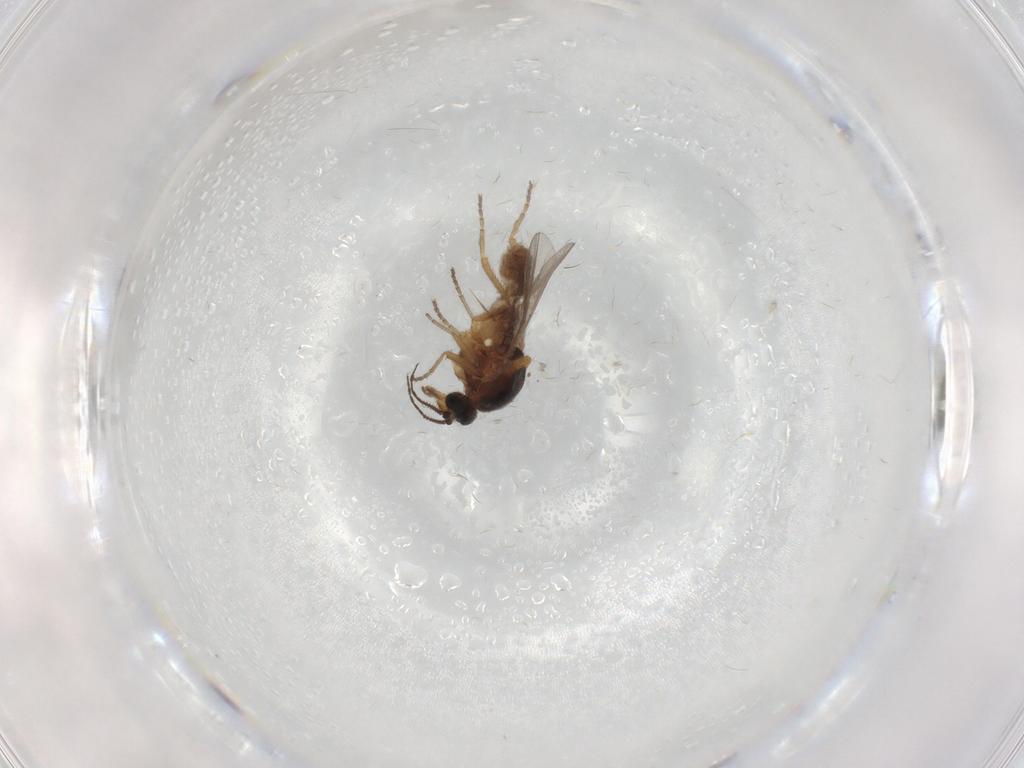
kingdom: Animalia
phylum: Arthropoda
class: Insecta
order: Diptera
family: Ceratopogonidae
